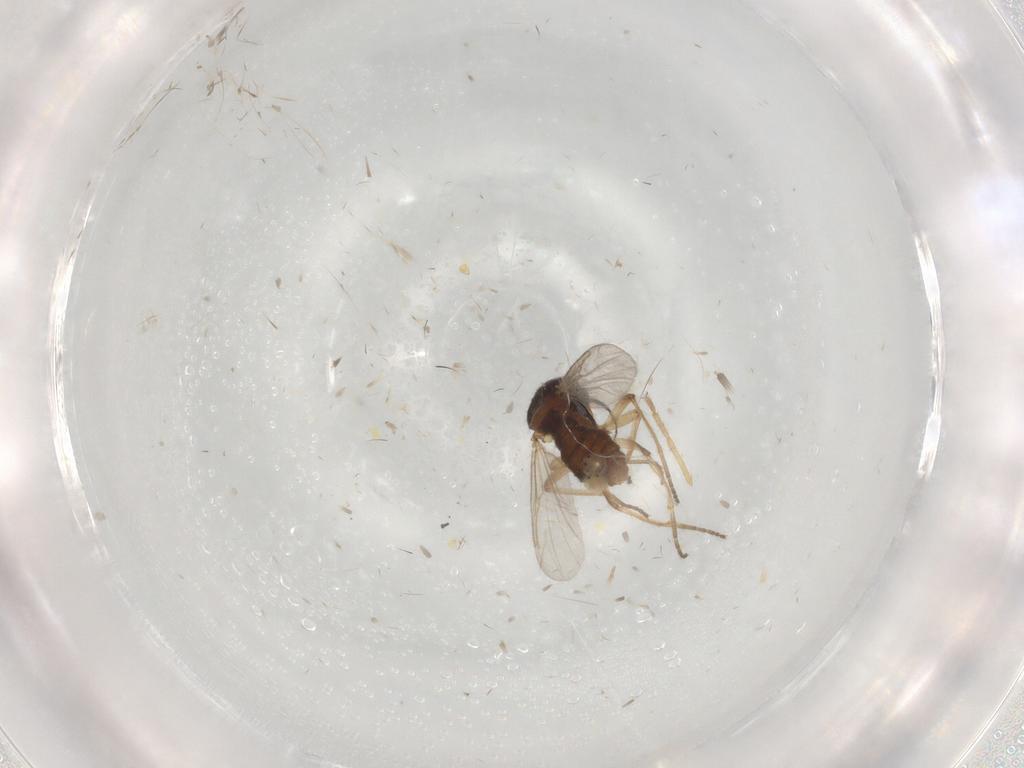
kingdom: Animalia
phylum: Arthropoda
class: Insecta
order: Diptera
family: Ceratopogonidae
